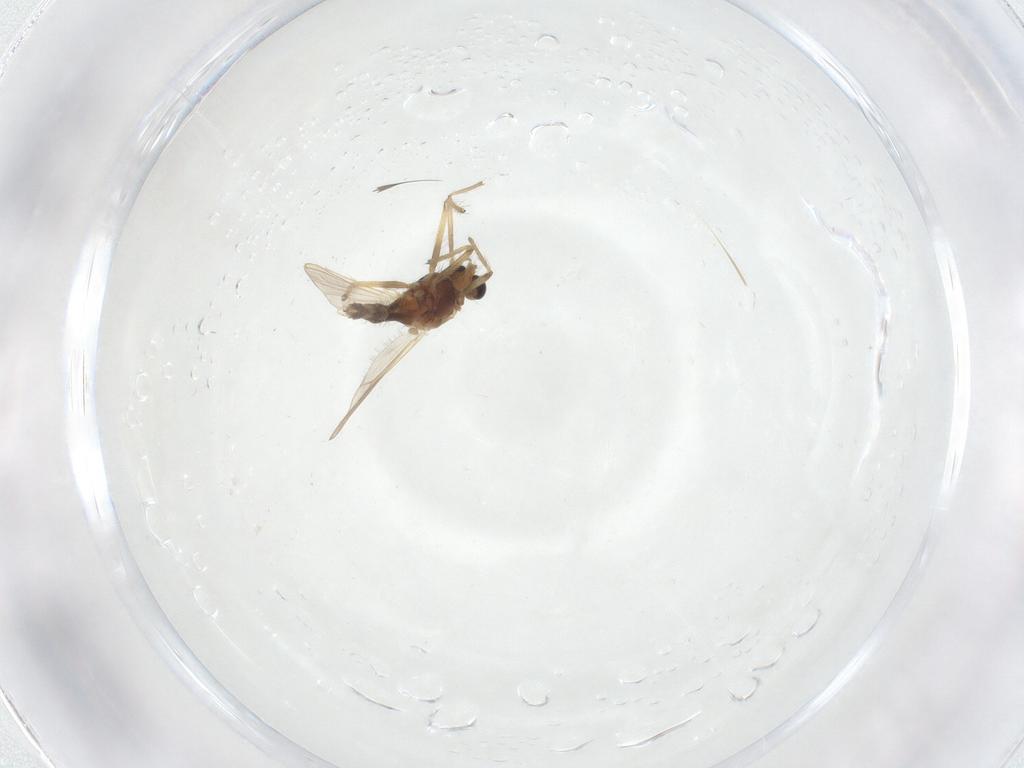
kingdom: Animalia
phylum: Arthropoda
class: Insecta
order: Diptera
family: Chironomidae
